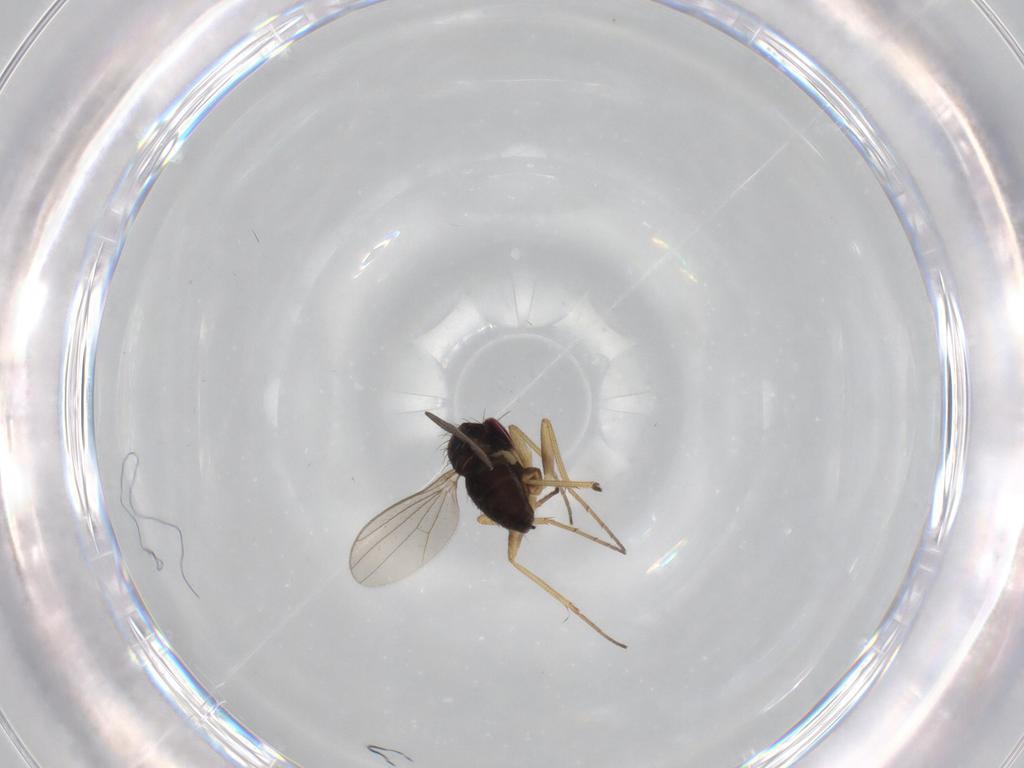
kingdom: Animalia
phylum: Arthropoda
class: Insecta
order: Diptera
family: Dolichopodidae
